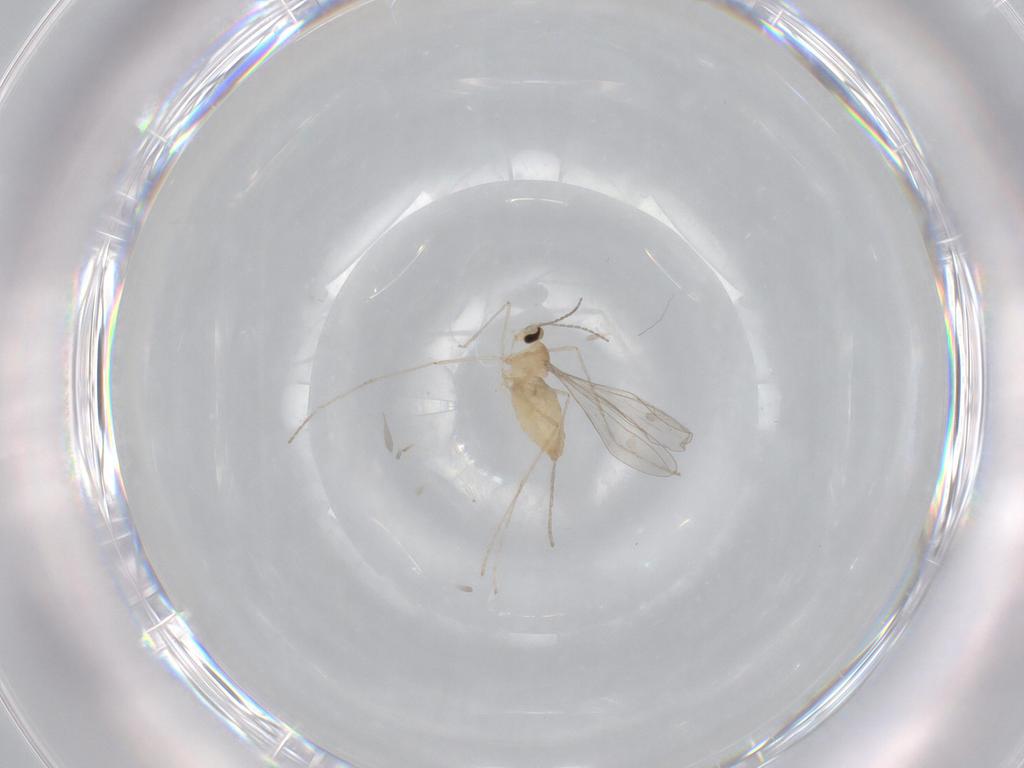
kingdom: Animalia
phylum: Arthropoda
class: Insecta
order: Diptera
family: Cecidomyiidae
